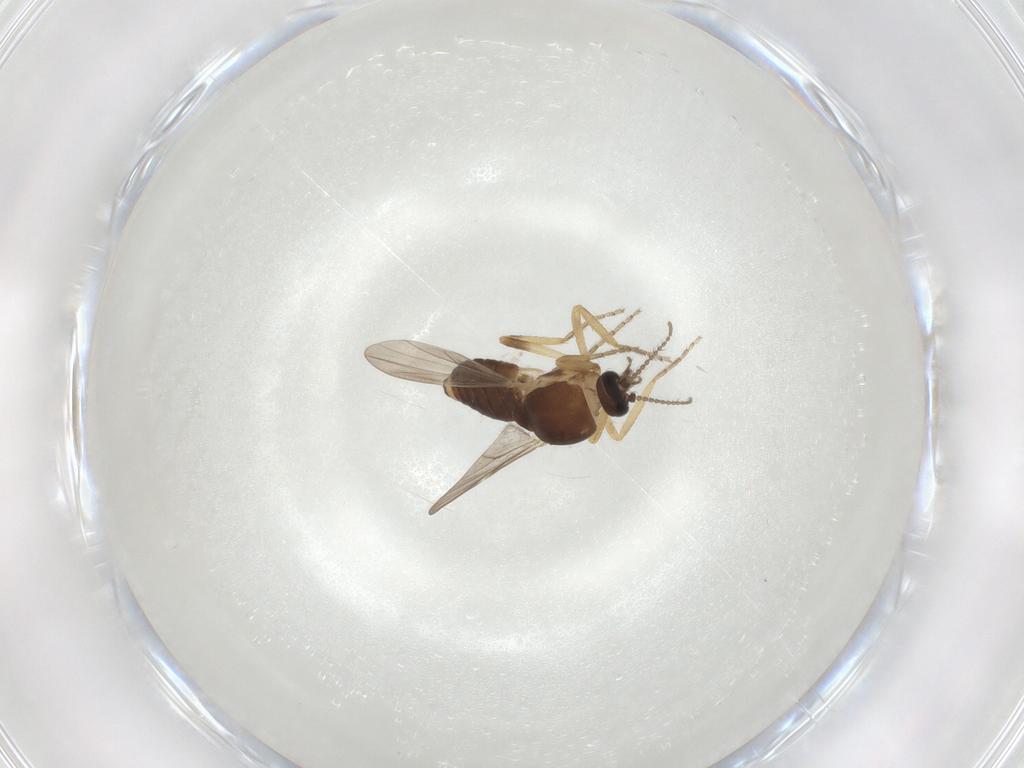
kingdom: Animalia
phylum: Arthropoda
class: Insecta
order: Diptera
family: Ceratopogonidae
